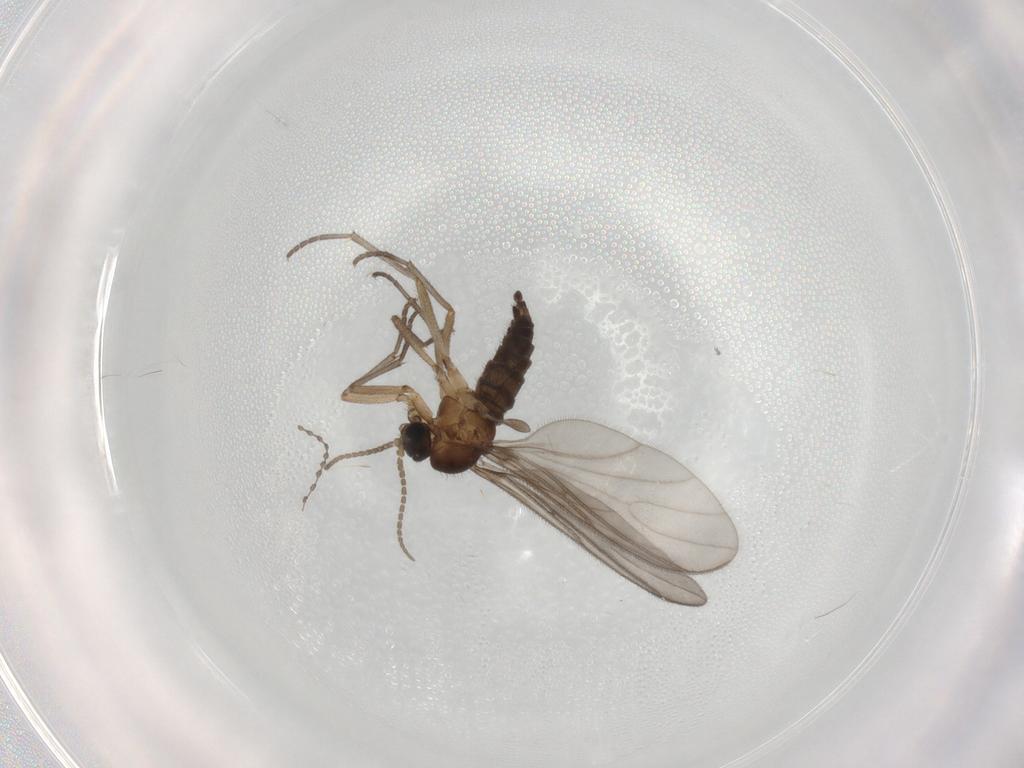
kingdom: Animalia
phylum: Arthropoda
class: Insecta
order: Diptera
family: Sciaridae
